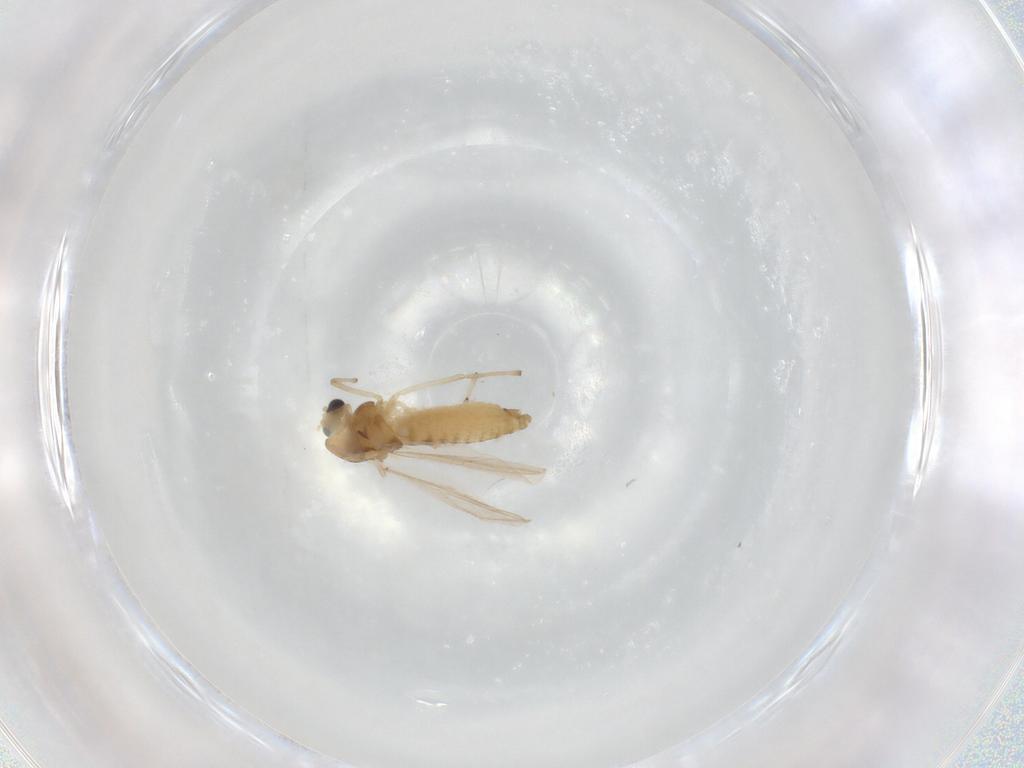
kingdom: Animalia
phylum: Arthropoda
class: Insecta
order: Diptera
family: Chironomidae
